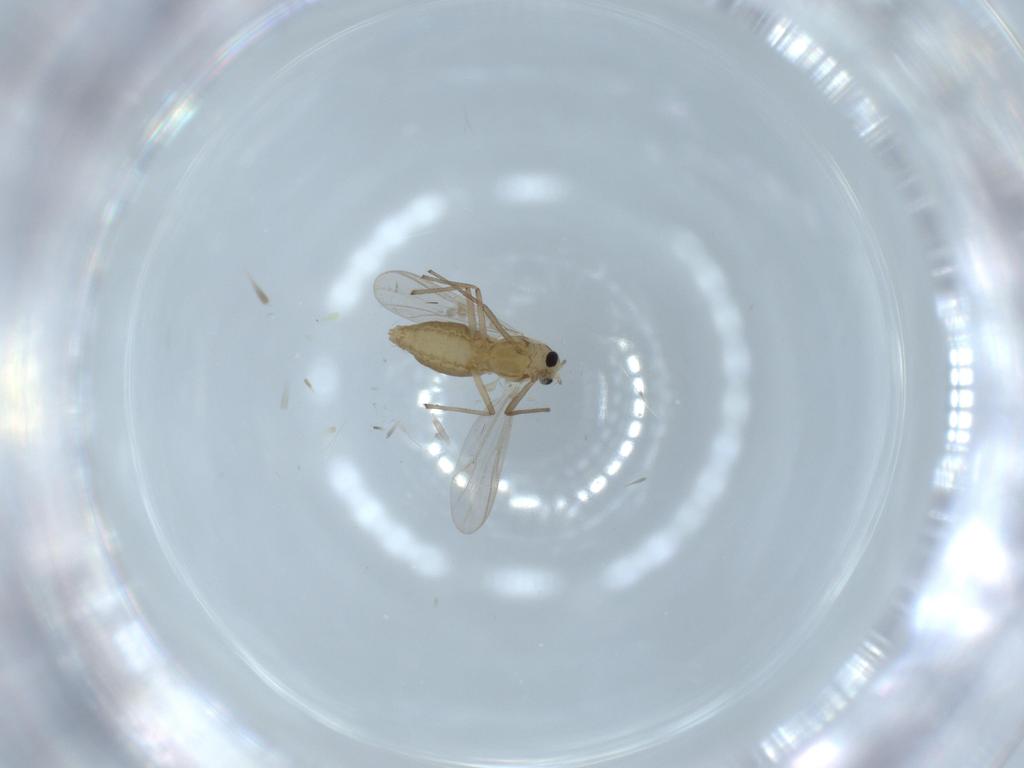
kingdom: Animalia
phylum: Arthropoda
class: Insecta
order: Diptera
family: Chironomidae
